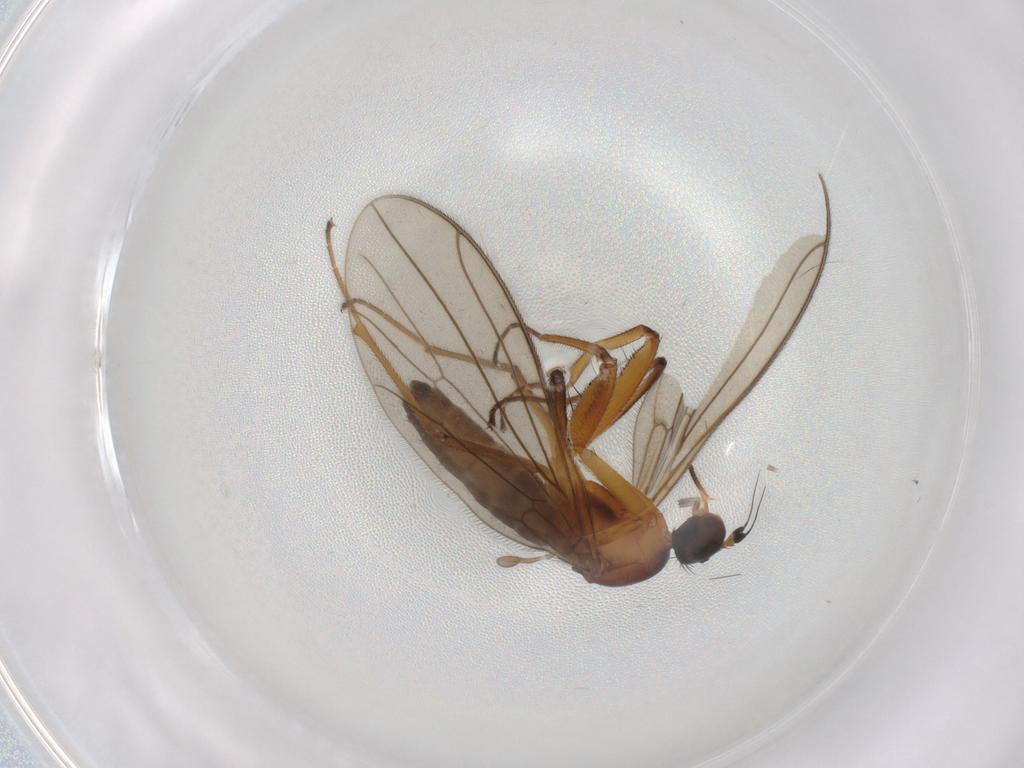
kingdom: Animalia
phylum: Arthropoda
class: Insecta
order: Diptera
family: Empididae
